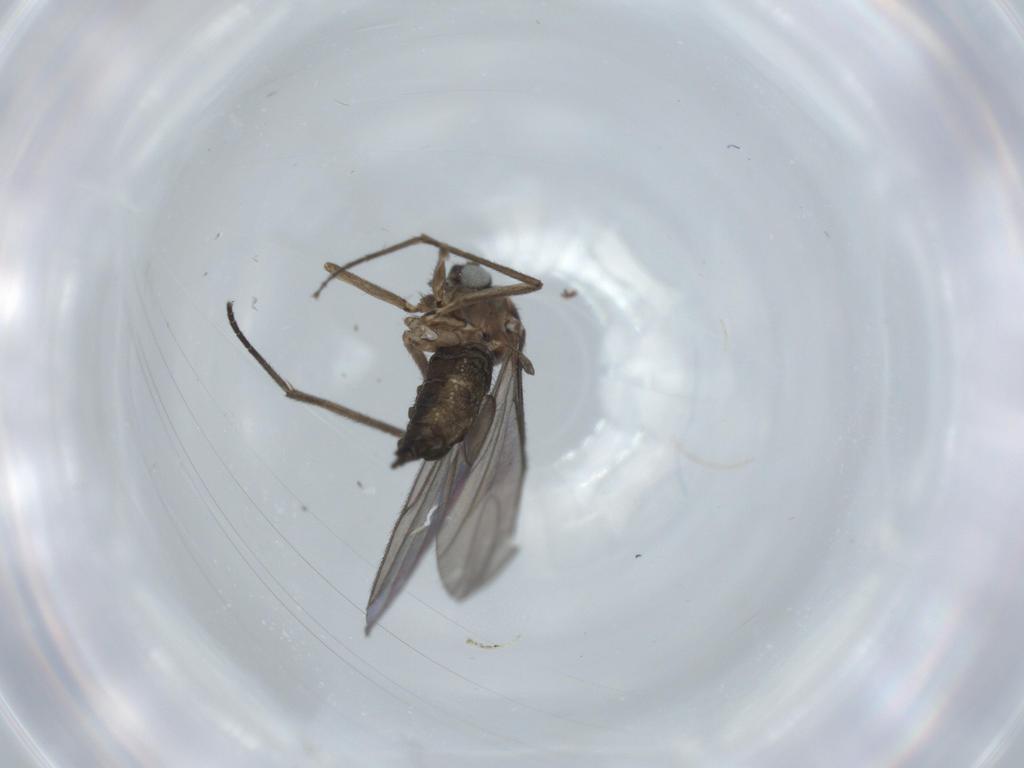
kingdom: Animalia
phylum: Arthropoda
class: Insecta
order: Diptera
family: Sciaridae
